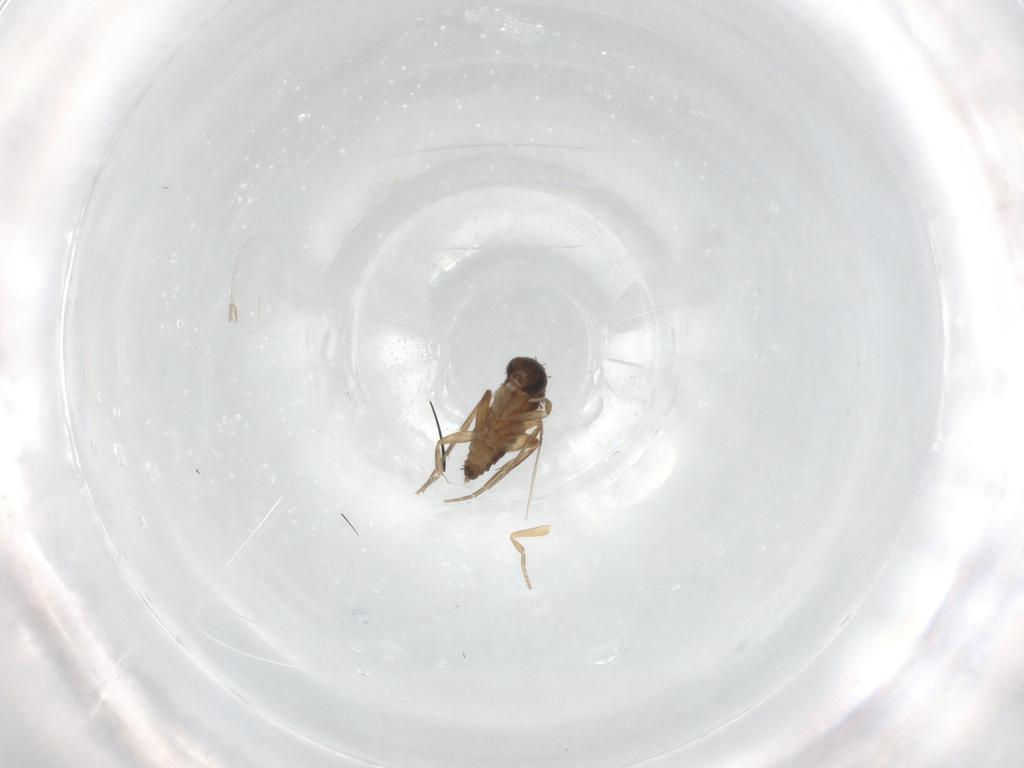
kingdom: Animalia
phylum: Arthropoda
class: Insecta
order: Diptera
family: Phoridae
